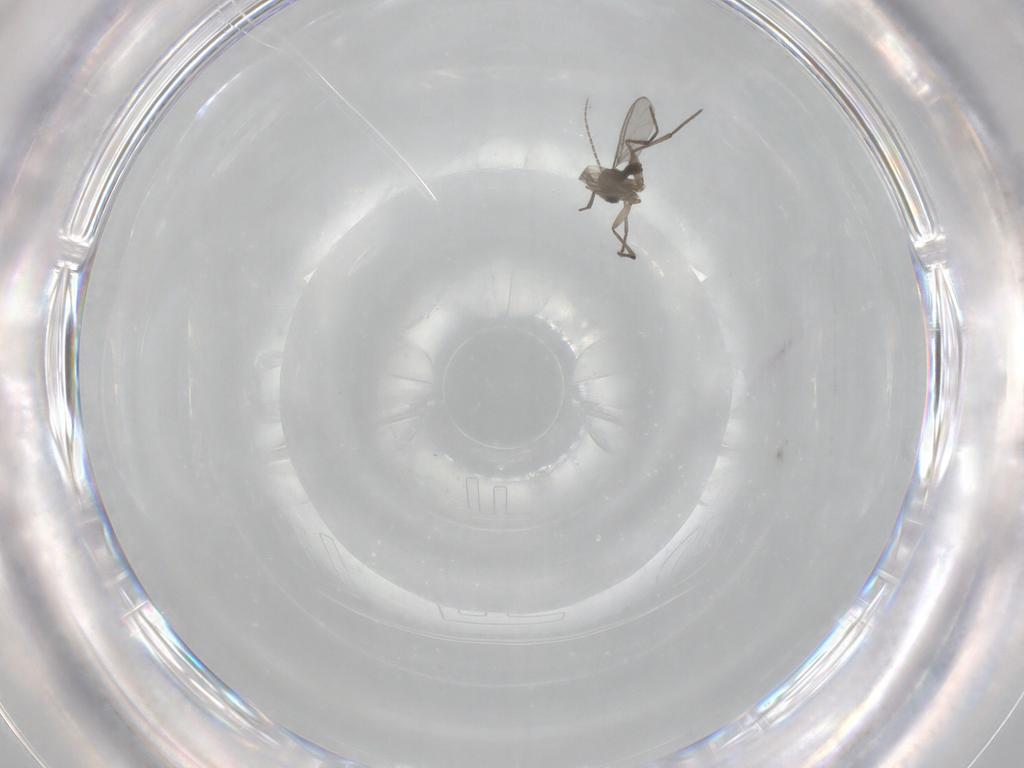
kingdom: Animalia
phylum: Arthropoda
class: Insecta
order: Diptera
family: Sciaridae
